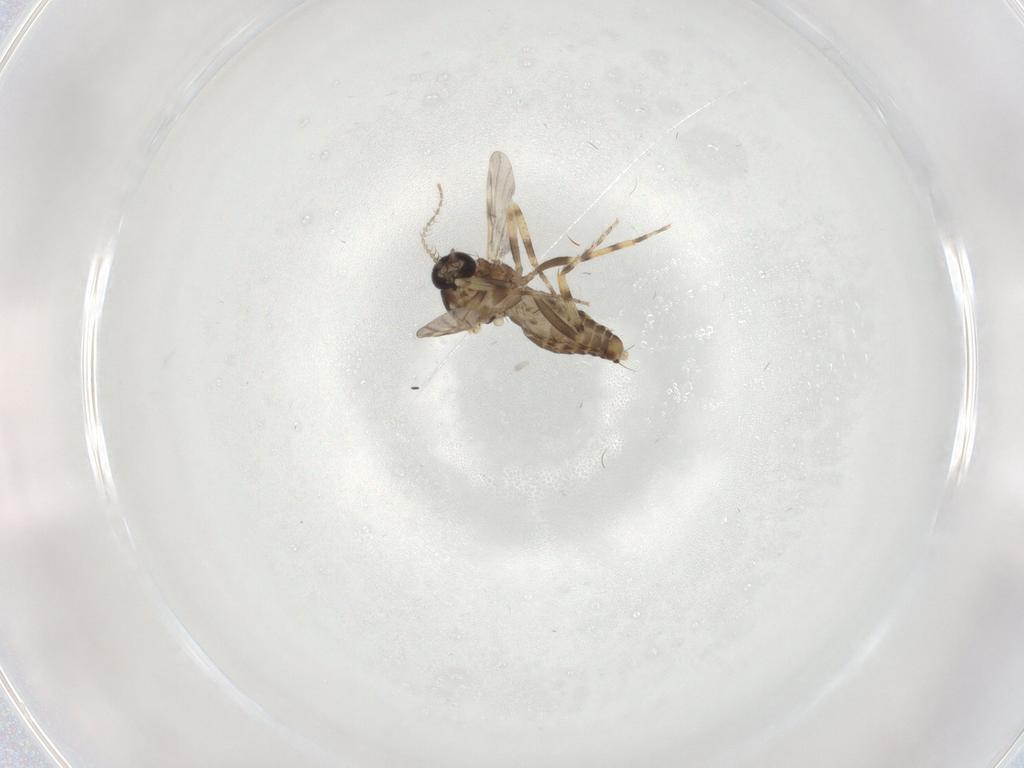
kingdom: Animalia
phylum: Arthropoda
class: Insecta
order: Diptera
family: Ceratopogonidae
